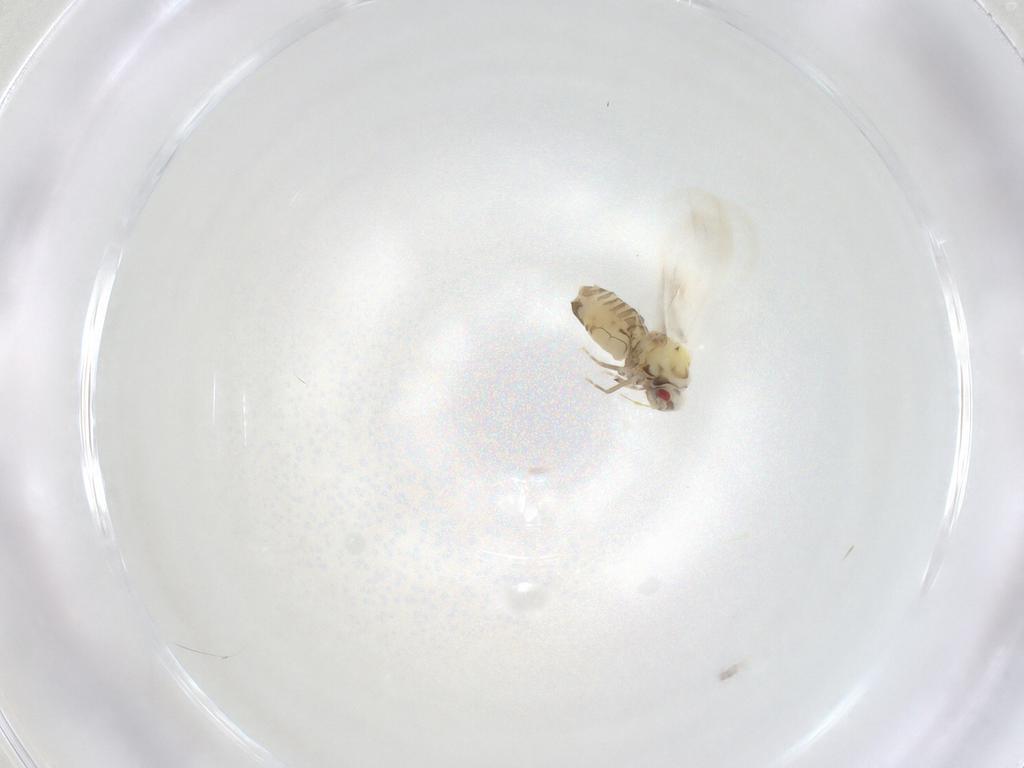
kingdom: Animalia
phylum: Arthropoda
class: Insecta
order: Hemiptera
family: Aleyrodidae
